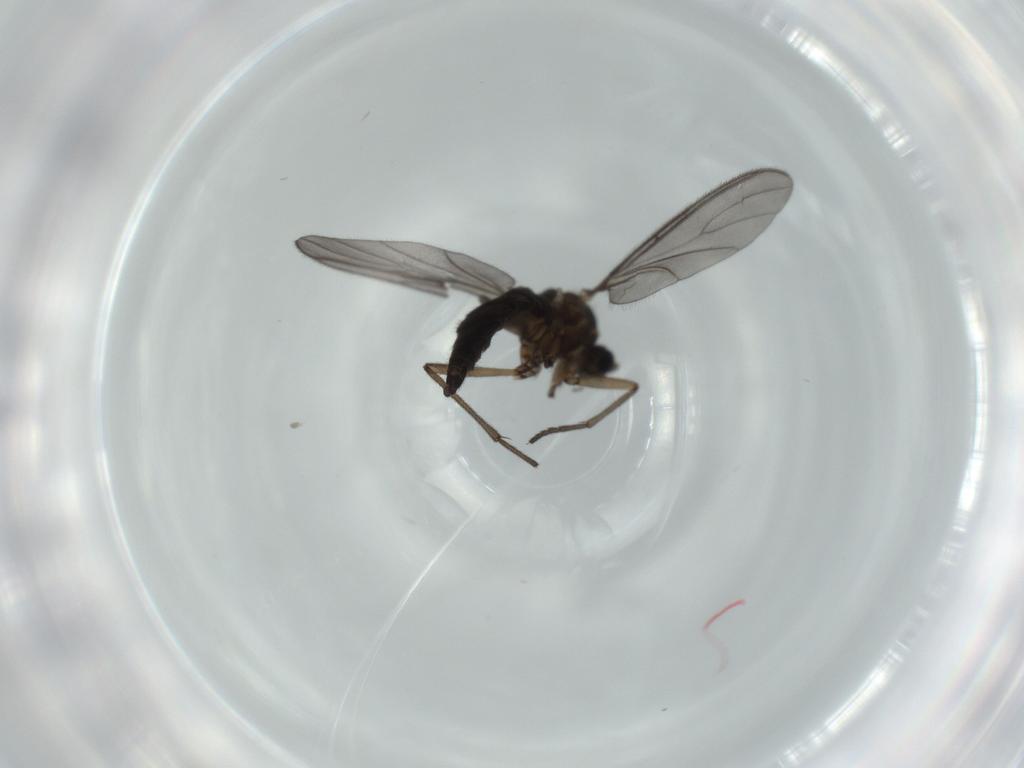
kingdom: Animalia
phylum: Arthropoda
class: Insecta
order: Diptera
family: Sciaridae
